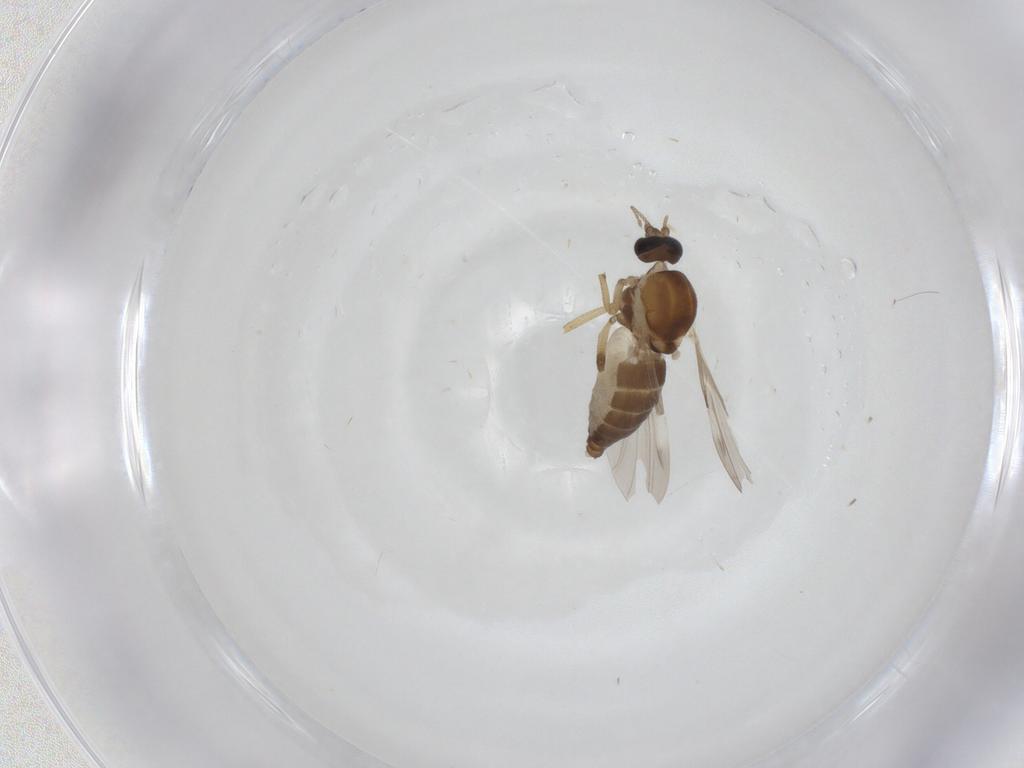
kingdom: Animalia
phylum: Arthropoda
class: Insecta
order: Diptera
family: Ceratopogonidae
